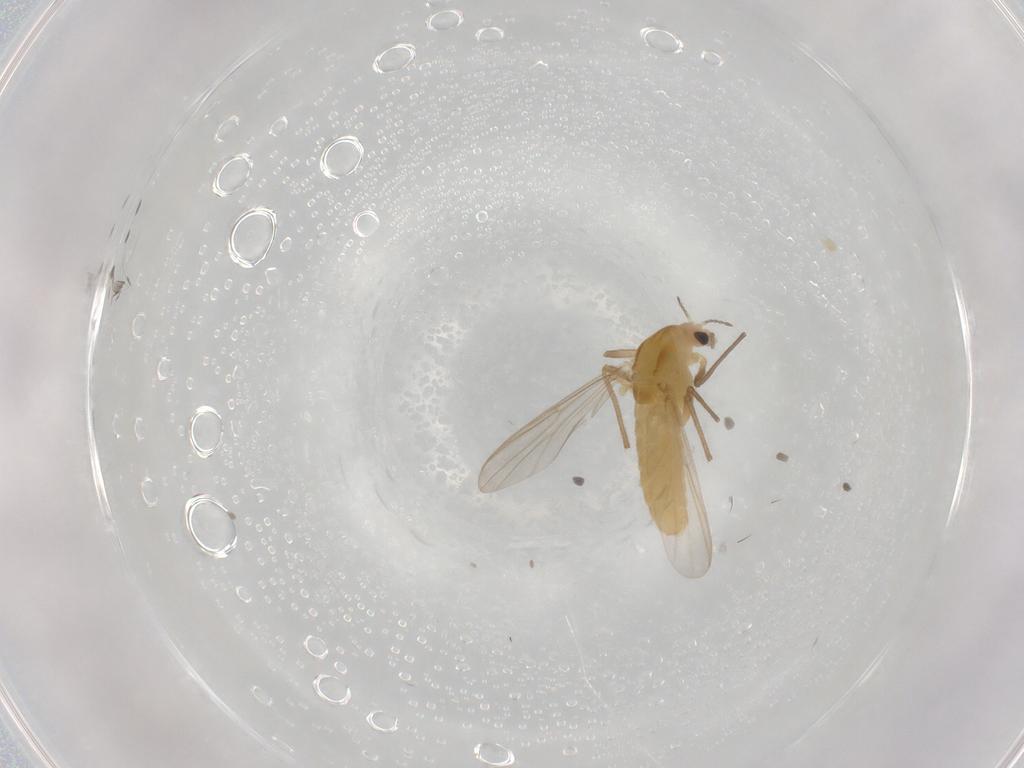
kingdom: Animalia
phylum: Arthropoda
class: Insecta
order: Diptera
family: Chironomidae
